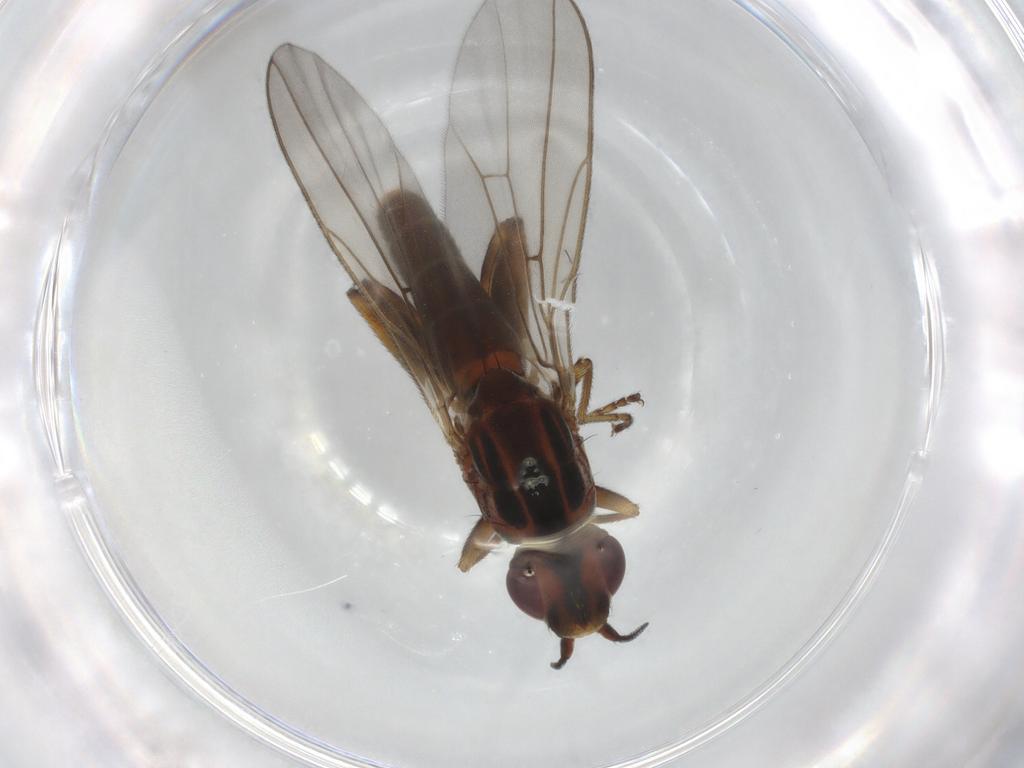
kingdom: Animalia
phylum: Arthropoda
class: Insecta
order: Diptera
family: Chloropidae
